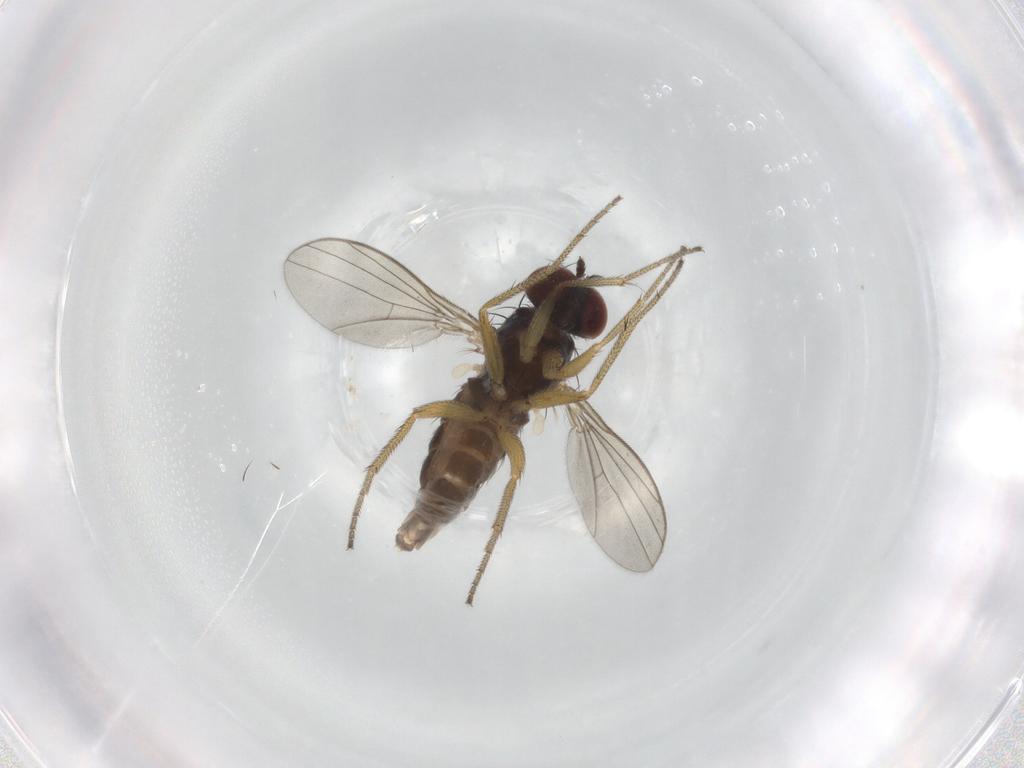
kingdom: Animalia
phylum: Arthropoda
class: Insecta
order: Diptera
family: Dolichopodidae
